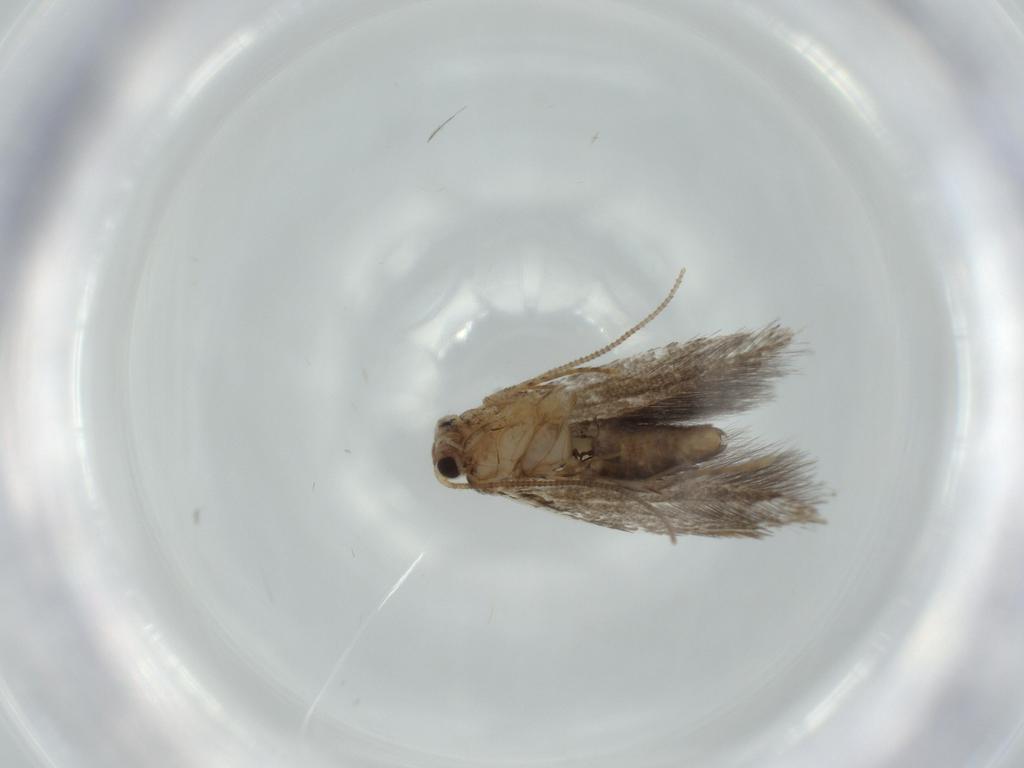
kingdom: Animalia
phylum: Arthropoda
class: Insecta
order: Lepidoptera
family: Meessiidae
